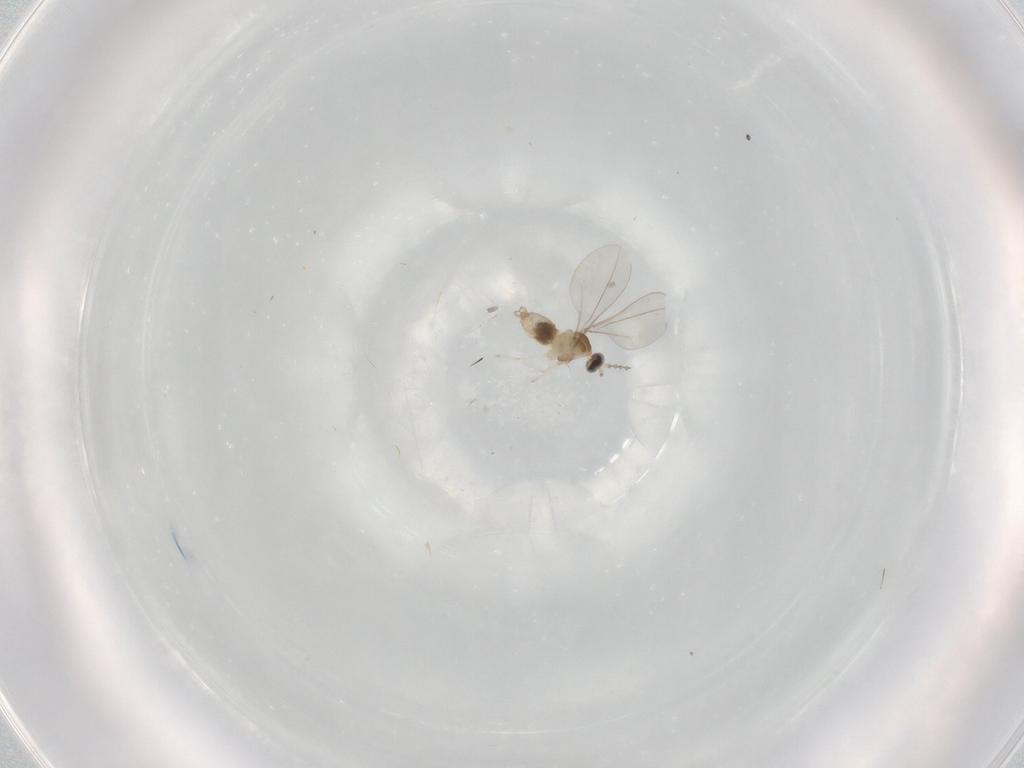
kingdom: Animalia
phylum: Arthropoda
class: Insecta
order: Diptera
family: Cecidomyiidae
